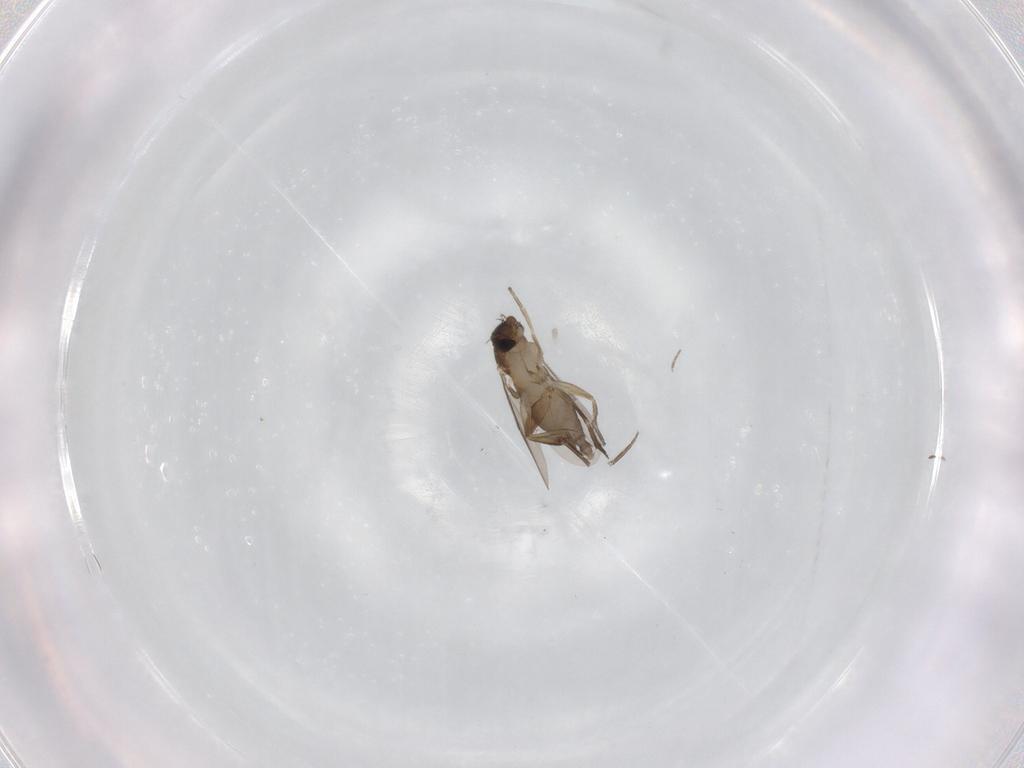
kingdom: Animalia
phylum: Arthropoda
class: Insecta
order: Diptera
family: Phoridae
